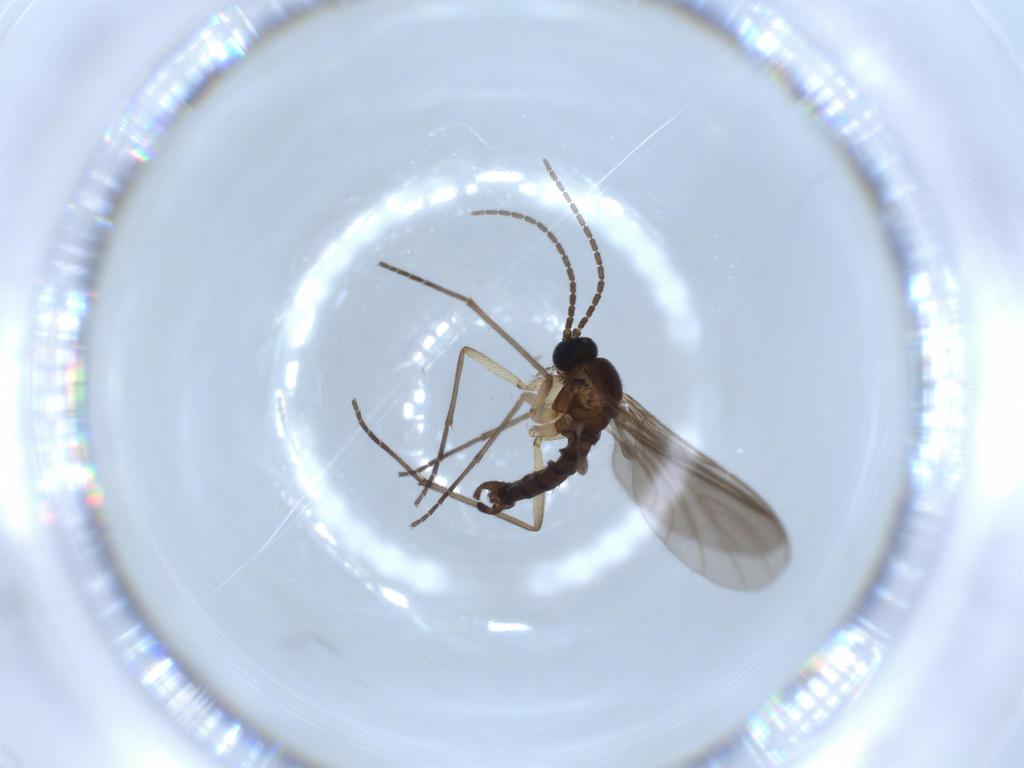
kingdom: Animalia
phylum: Arthropoda
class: Insecta
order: Diptera
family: Sciaridae
